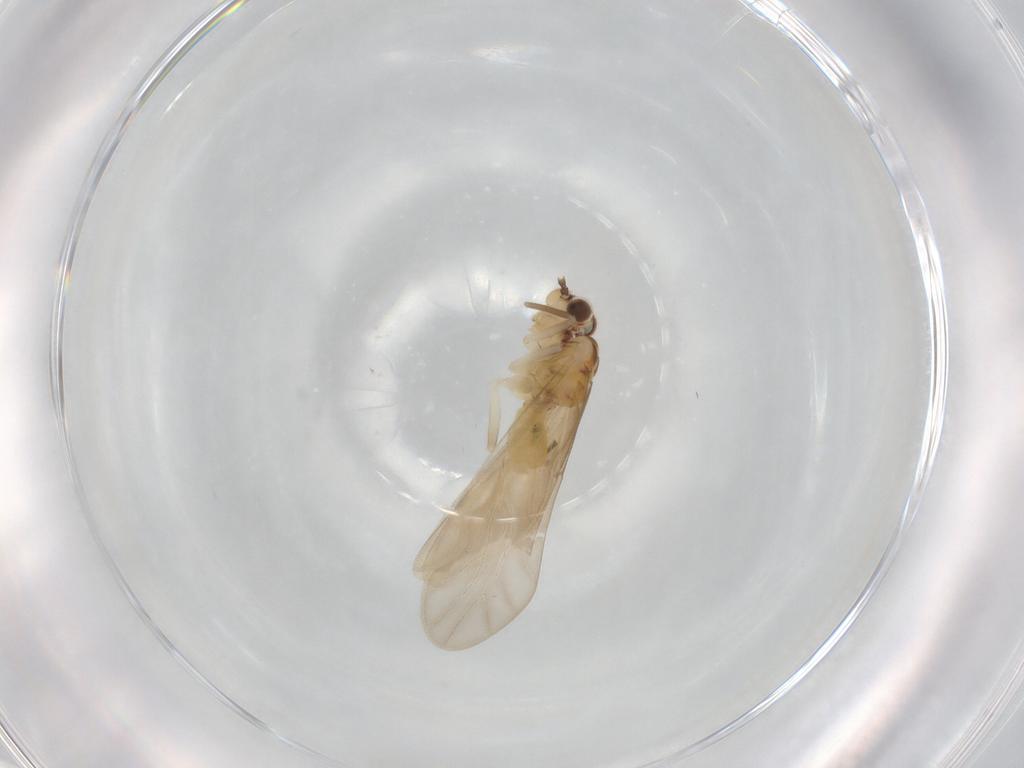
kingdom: Animalia
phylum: Arthropoda
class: Insecta
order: Psocodea
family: Caeciliusidae
